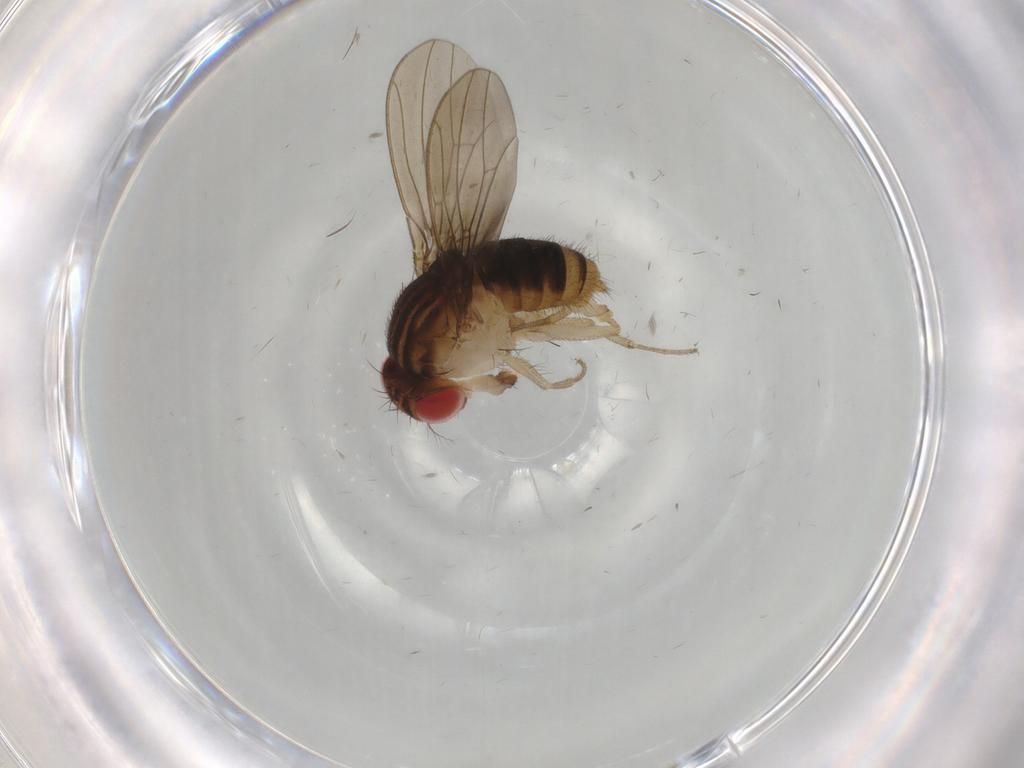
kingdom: Animalia
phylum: Arthropoda
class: Insecta
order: Diptera
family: Drosophilidae
